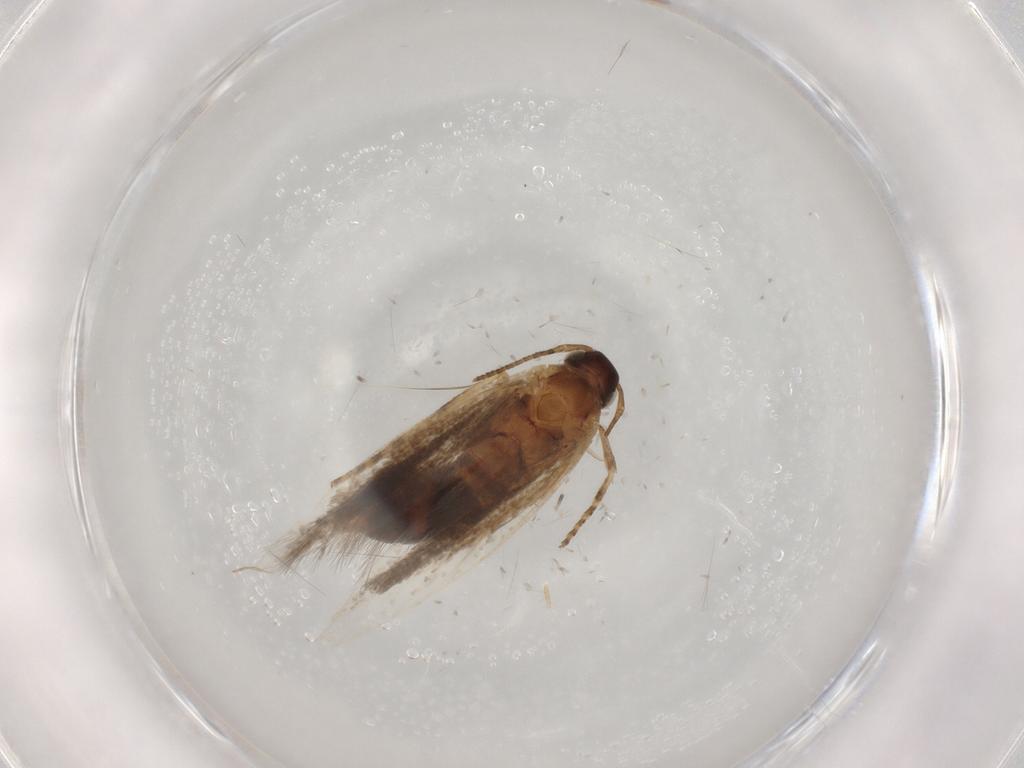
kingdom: Animalia
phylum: Arthropoda
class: Insecta
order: Lepidoptera
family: Gelechiidae
